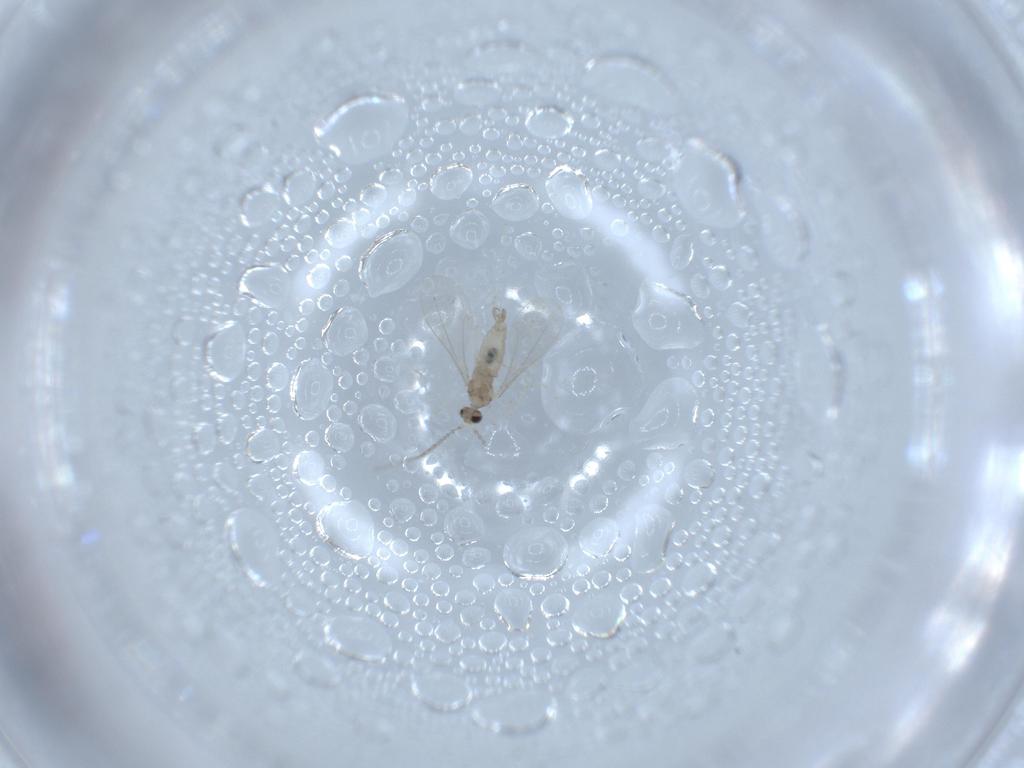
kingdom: Animalia
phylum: Arthropoda
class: Insecta
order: Diptera
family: Cecidomyiidae
